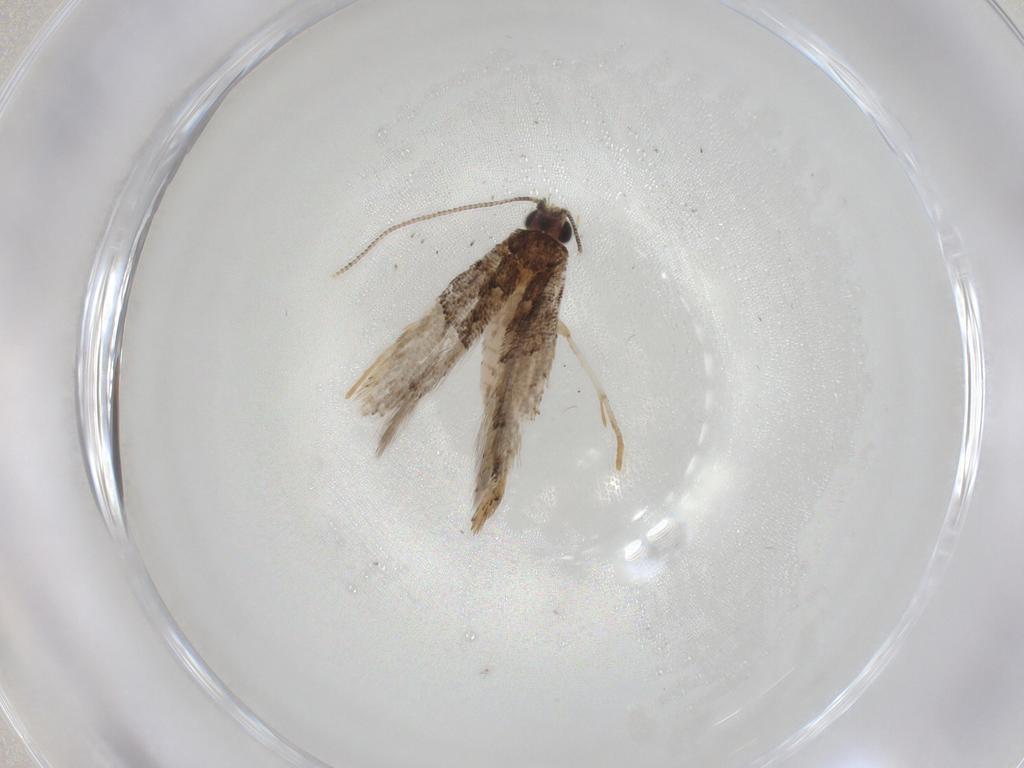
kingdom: Animalia
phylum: Arthropoda
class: Insecta
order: Lepidoptera
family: Tineidae
